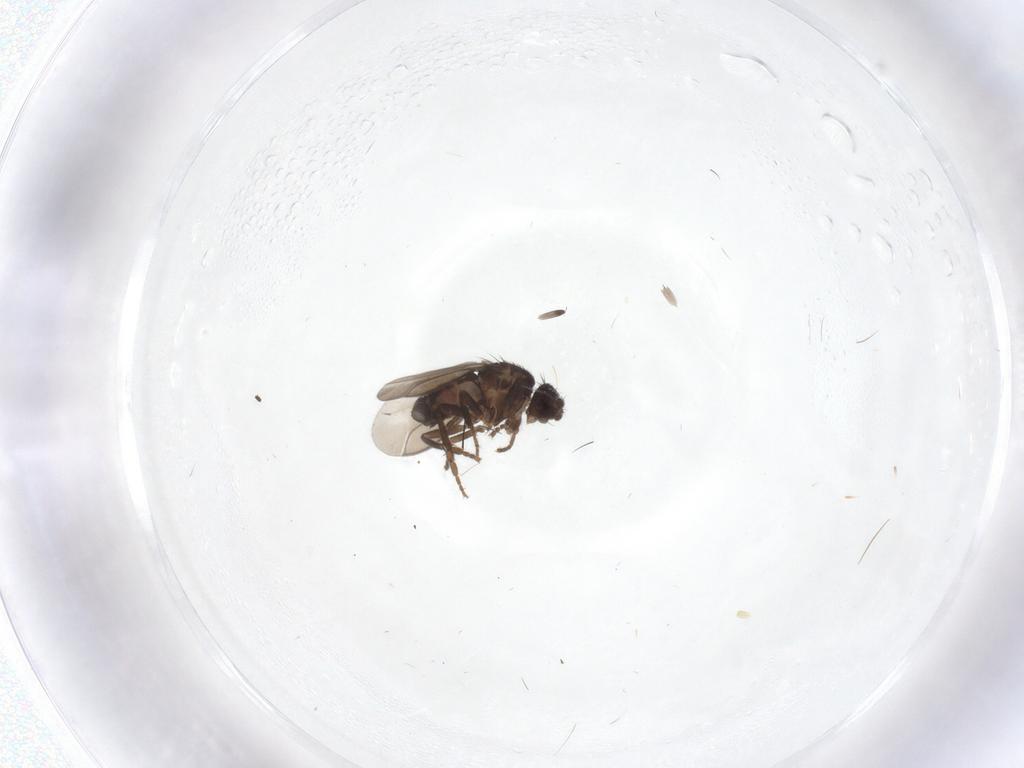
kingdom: Animalia
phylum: Arthropoda
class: Insecta
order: Diptera
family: Sphaeroceridae
